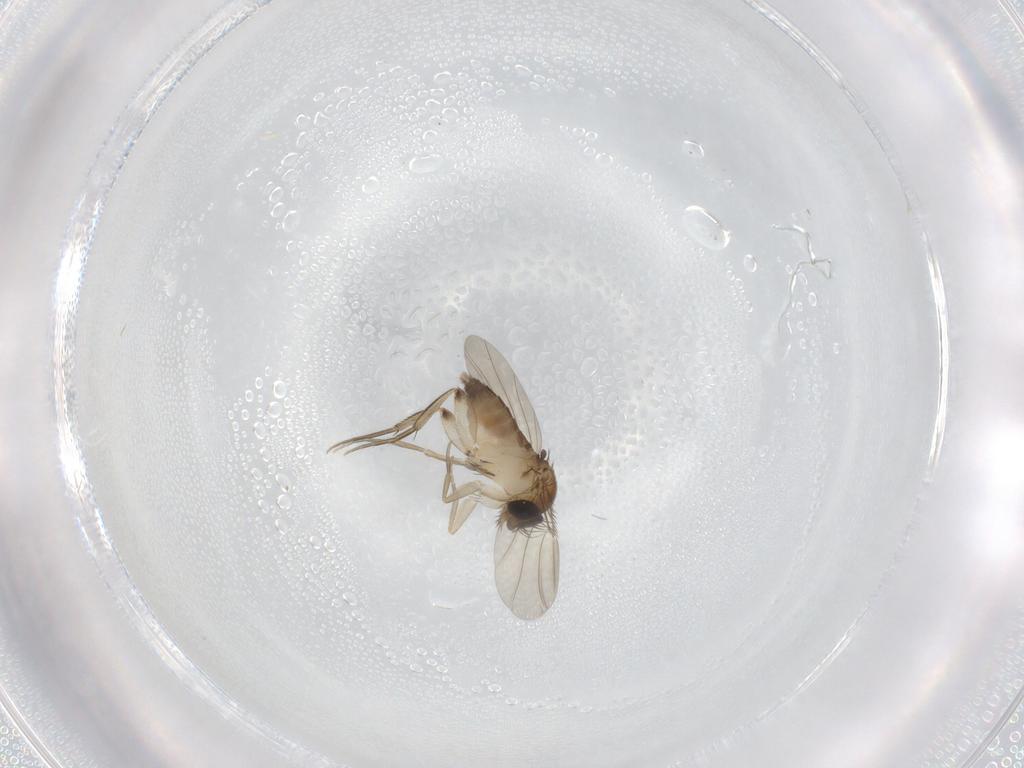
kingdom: Animalia
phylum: Arthropoda
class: Insecta
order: Diptera
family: Phoridae
